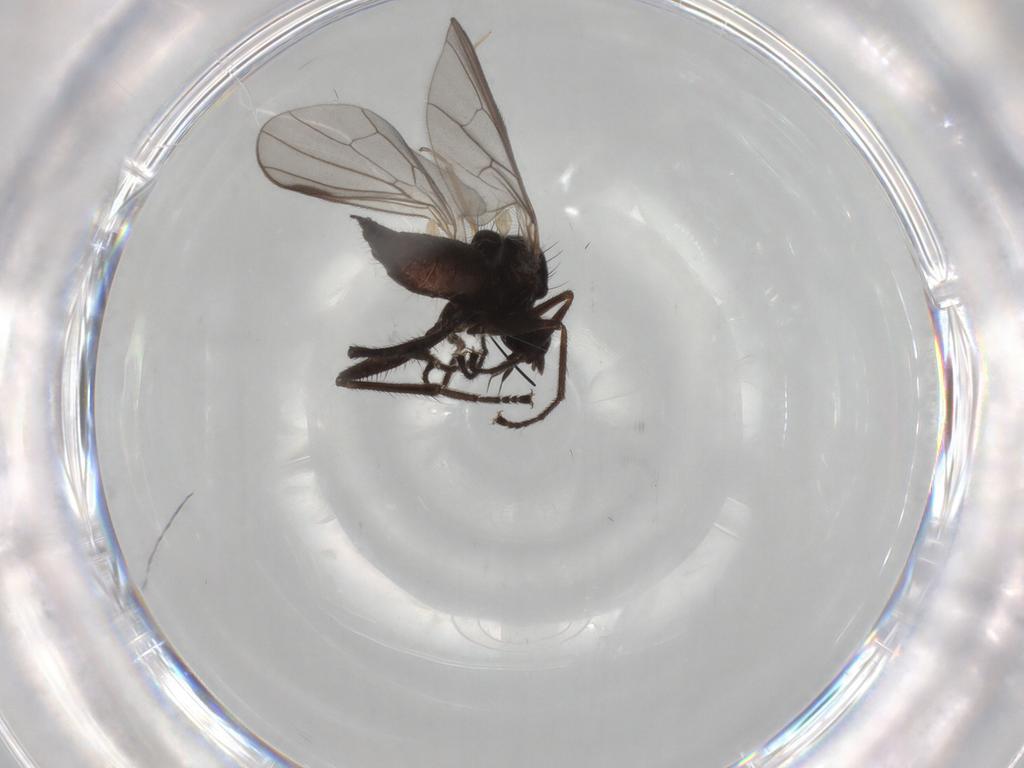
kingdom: Animalia
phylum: Arthropoda
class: Insecta
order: Diptera
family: Hybotidae
